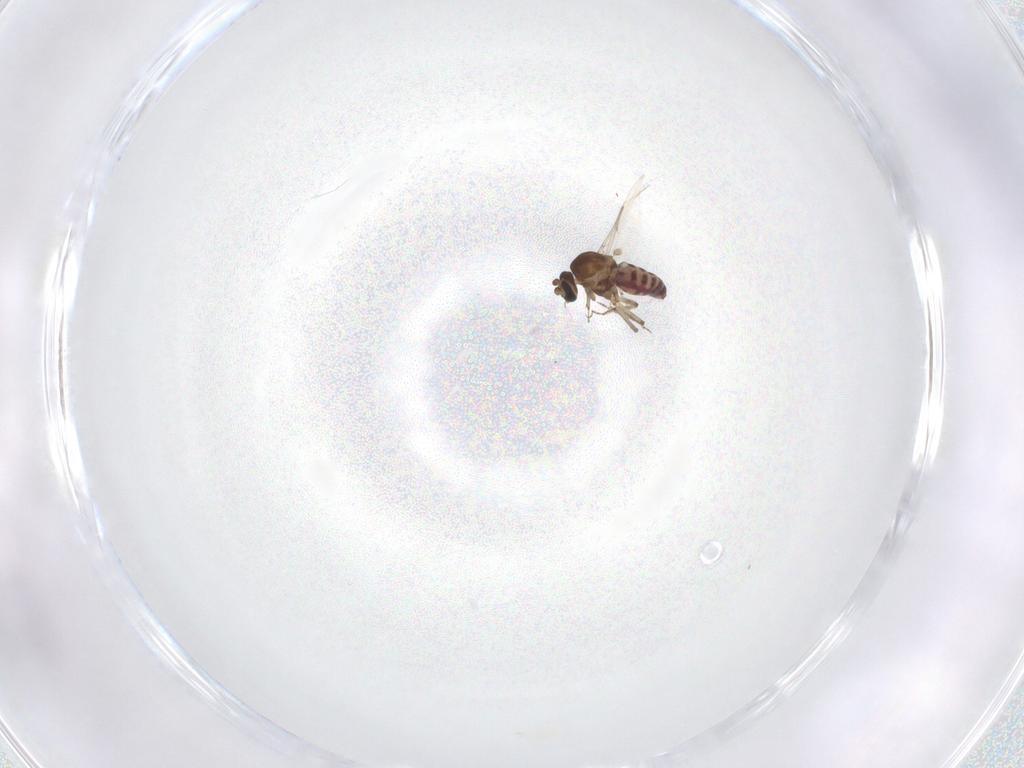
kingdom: Animalia
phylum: Arthropoda
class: Insecta
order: Diptera
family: Ceratopogonidae
